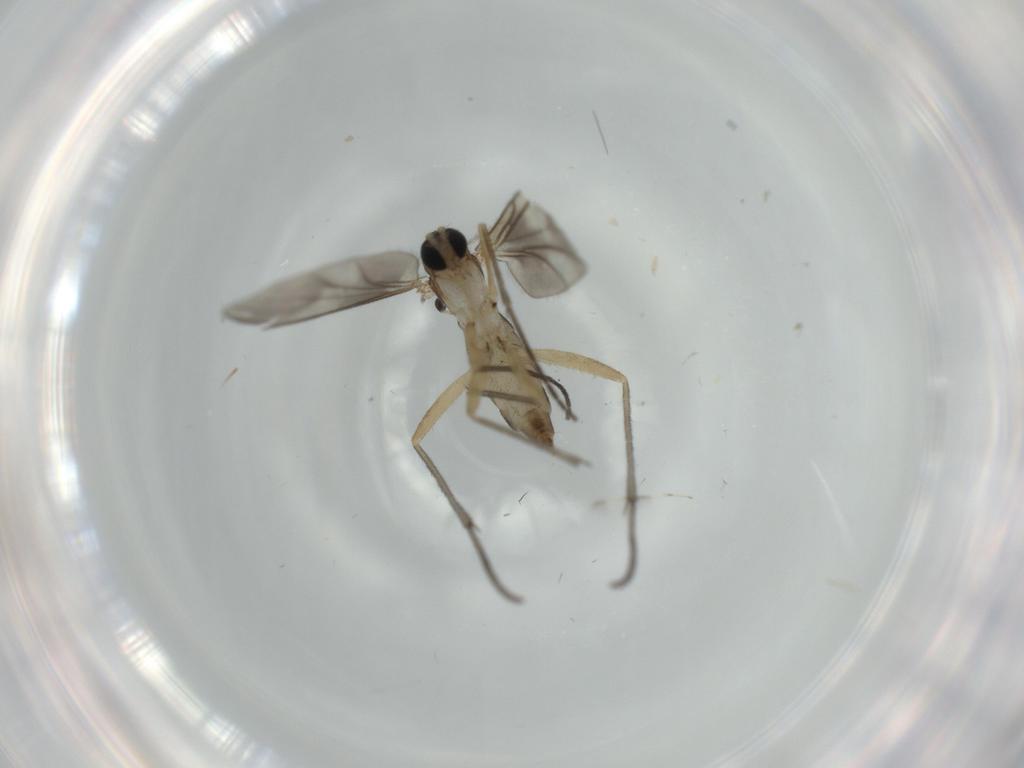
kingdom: Animalia
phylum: Arthropoda
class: Insecta
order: Diptera
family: Sciaridae
